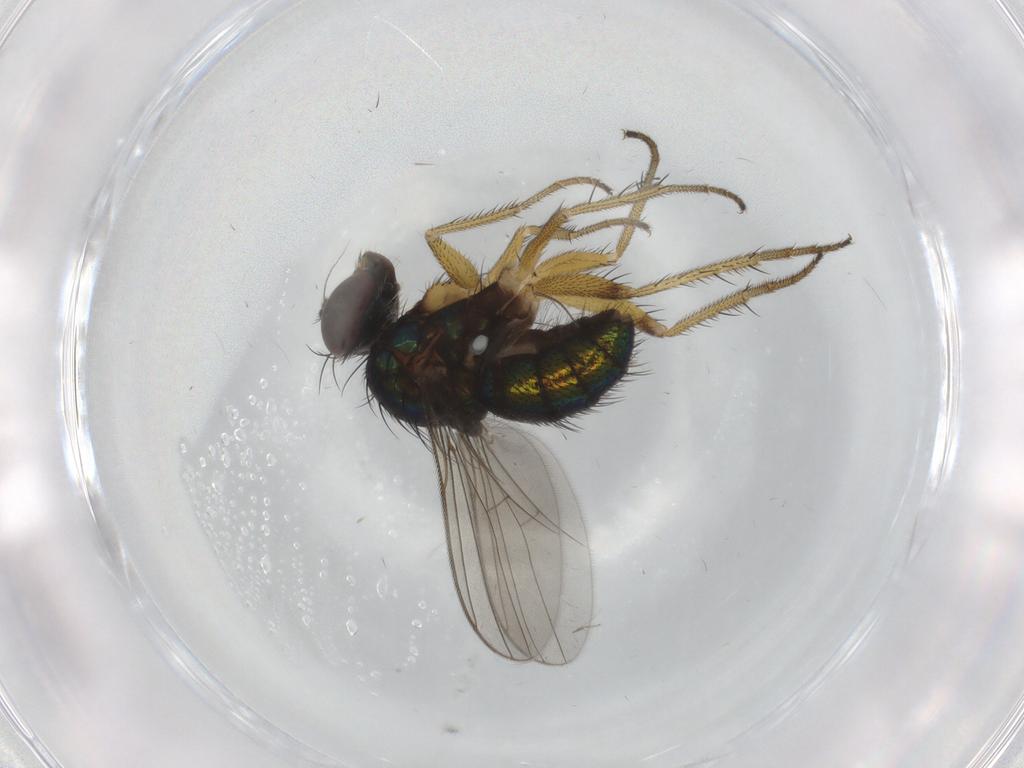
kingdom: Animalia
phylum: Arthropoda
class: Insecta
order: Diptera
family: Dolichopodidae
